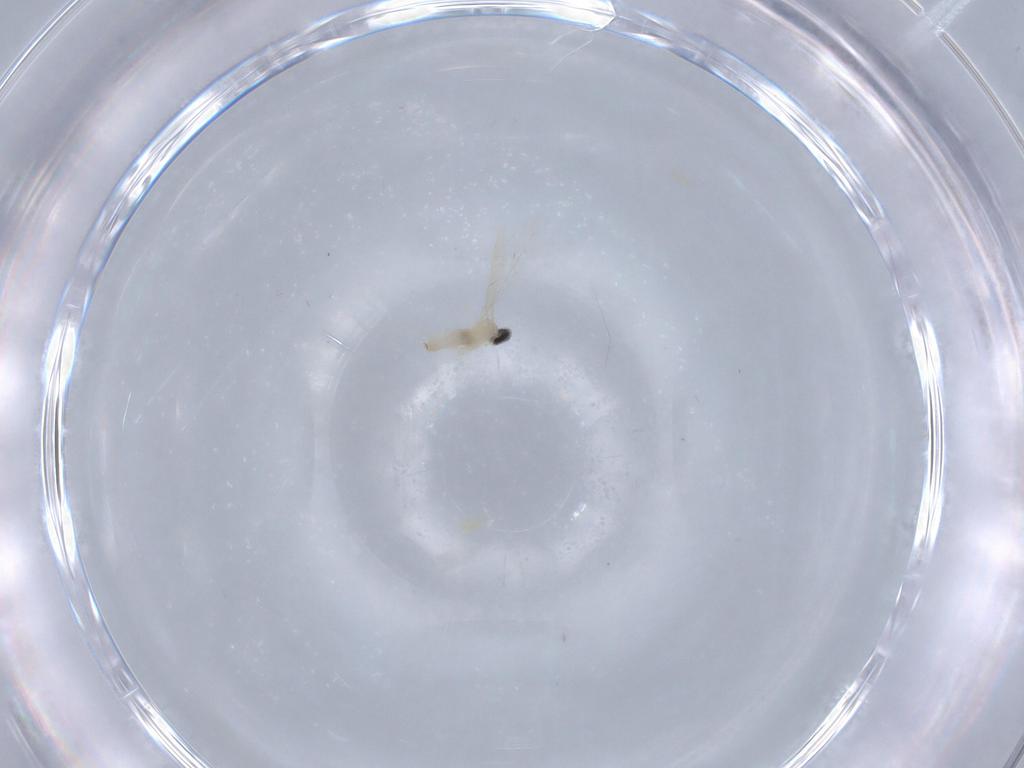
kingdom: Animalia
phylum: Arthropoda
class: Insecta
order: Diptera
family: Cecidomyiidae
